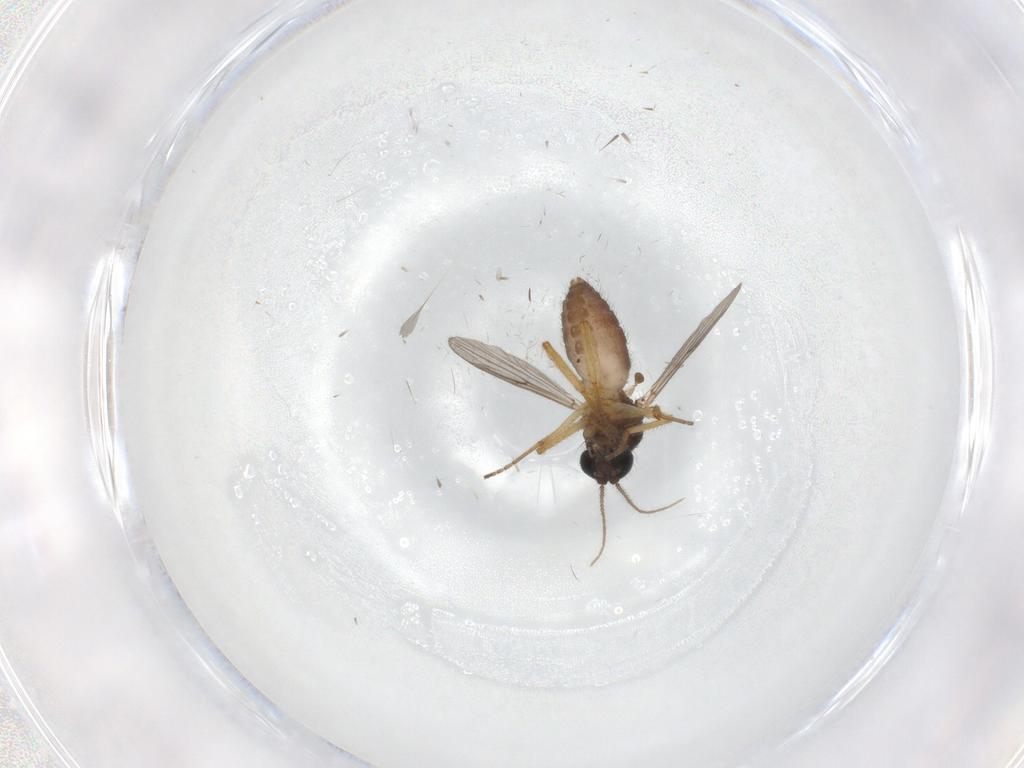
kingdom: Animalia
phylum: Arthropoda
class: Insecta
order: Diptera
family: Ceratopogonidae
